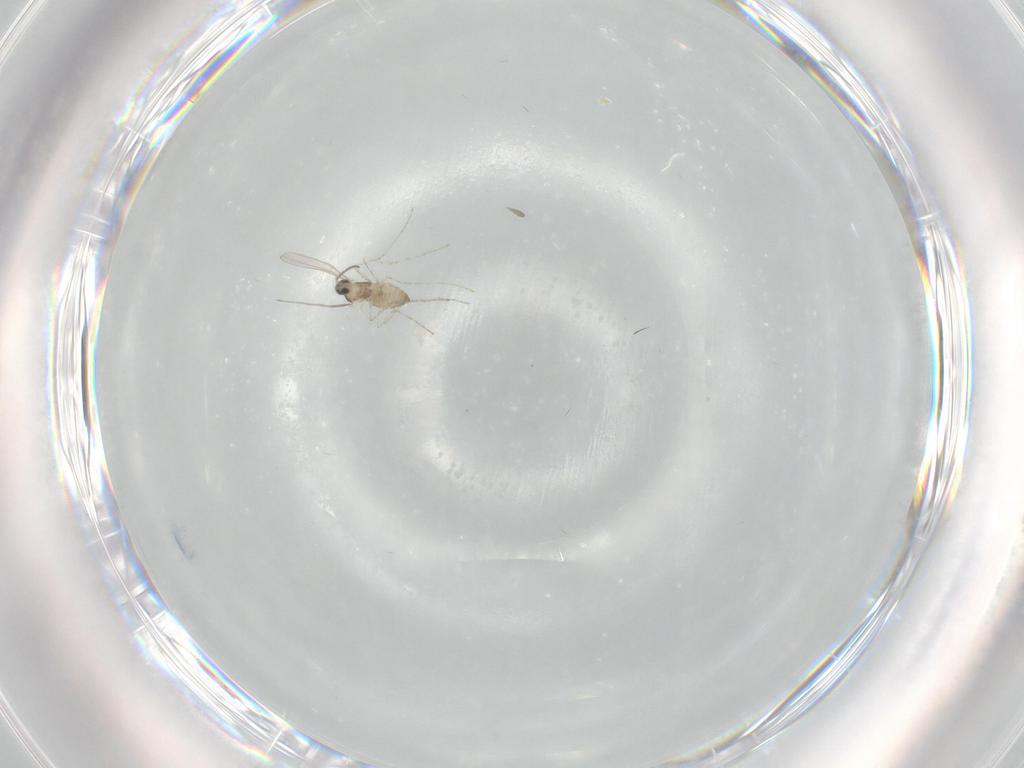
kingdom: Animalia
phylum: Arthropoda
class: Insecta
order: Diptera
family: Cecidomyiidae
